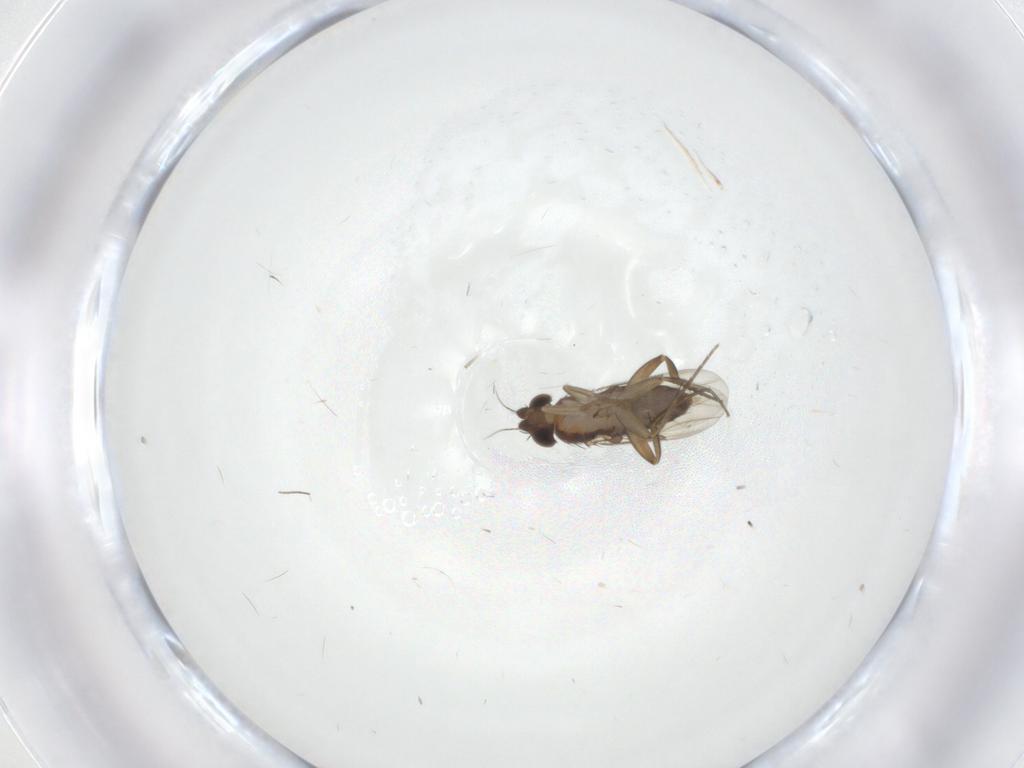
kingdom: Animalia
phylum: Arthropoda
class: Insecta
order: Diptera
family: Phoridae
